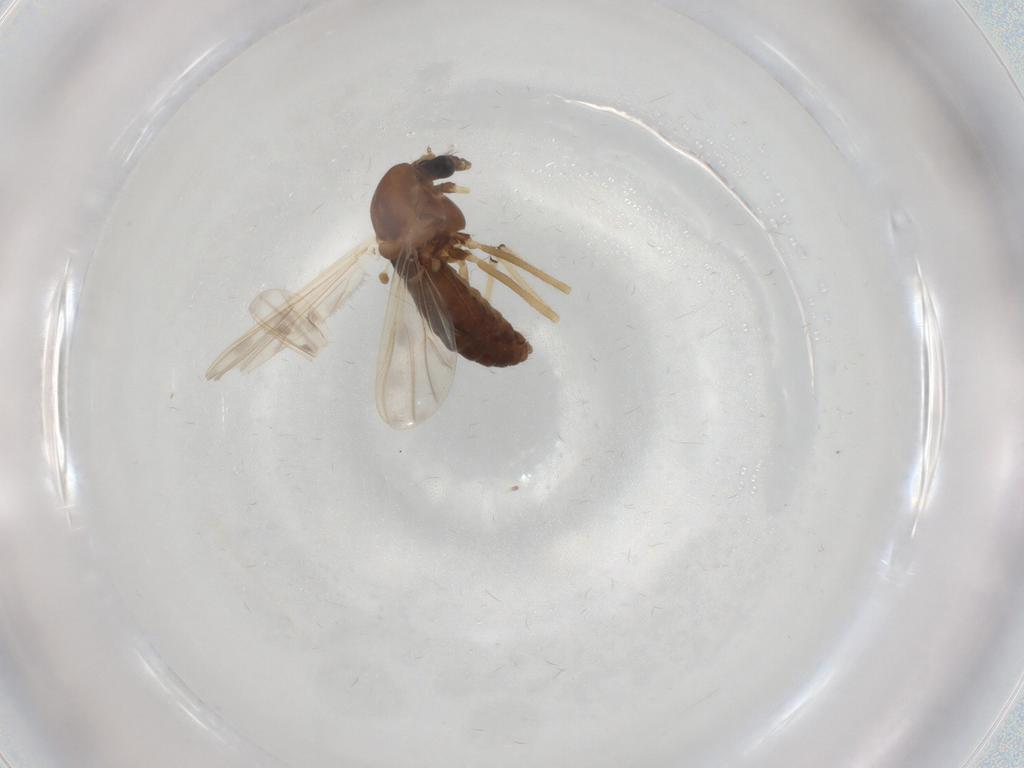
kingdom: Animalia
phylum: Arthropoda
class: Insecta
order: Diptera
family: Chironomidae
